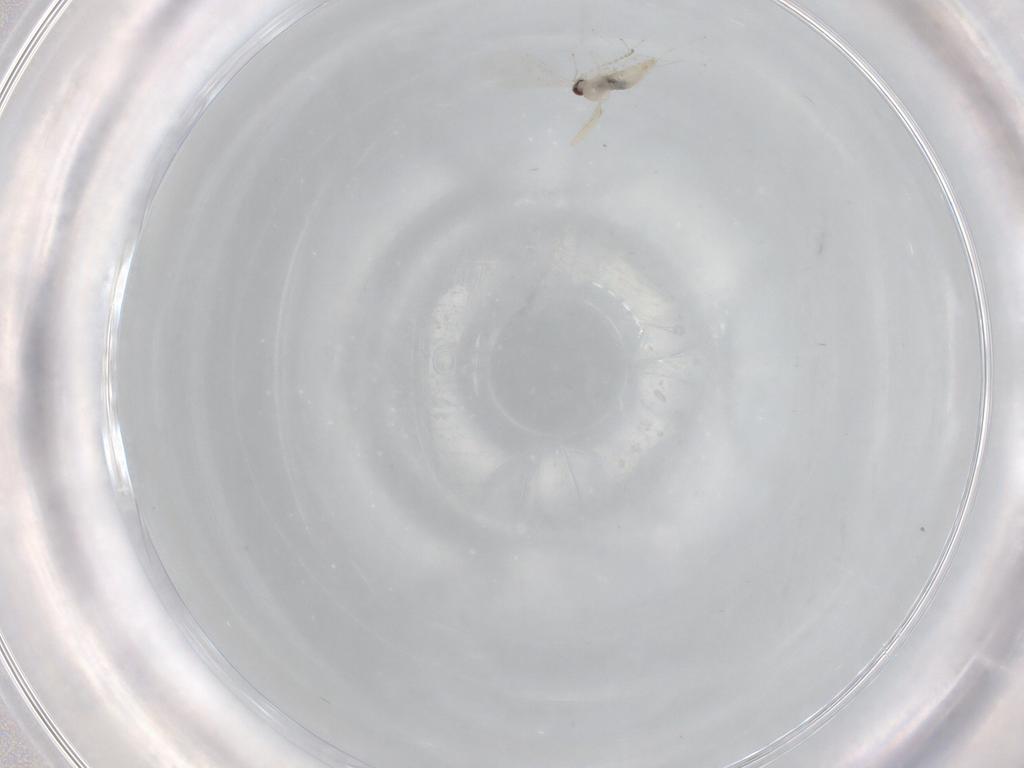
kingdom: Animalia
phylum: Arthropoda
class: Insecta
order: Diptera
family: Cecidomyiidae
